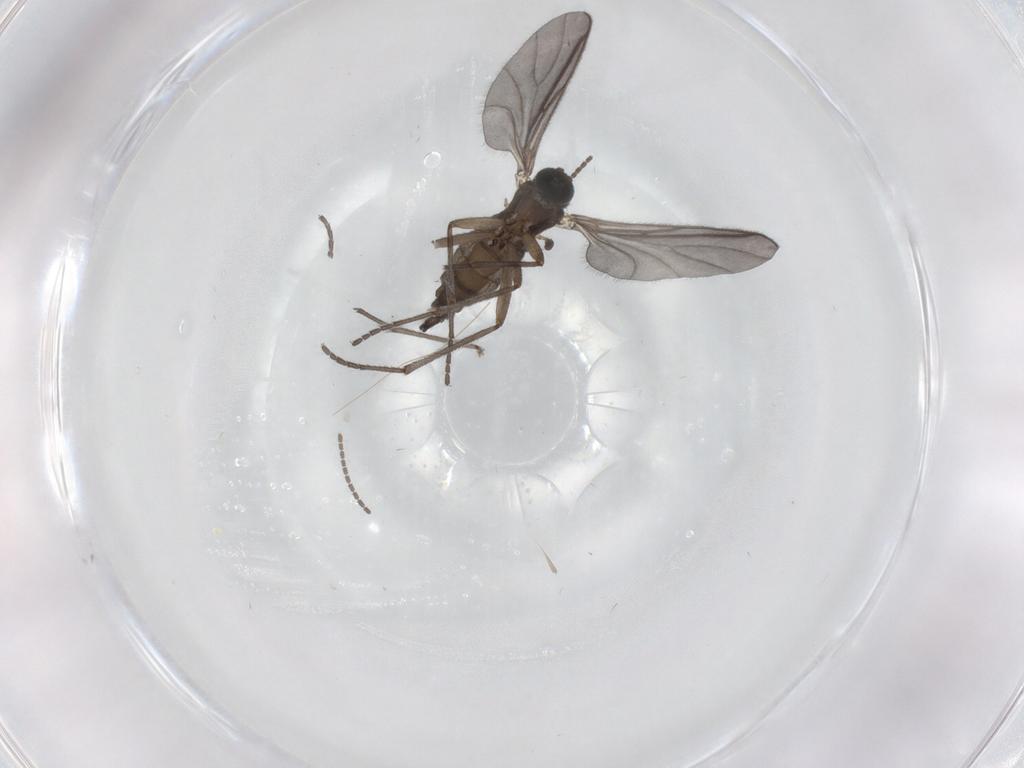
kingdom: Animalia
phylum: Arthropoda
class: Insecta
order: Diptera
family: Sciaridae
